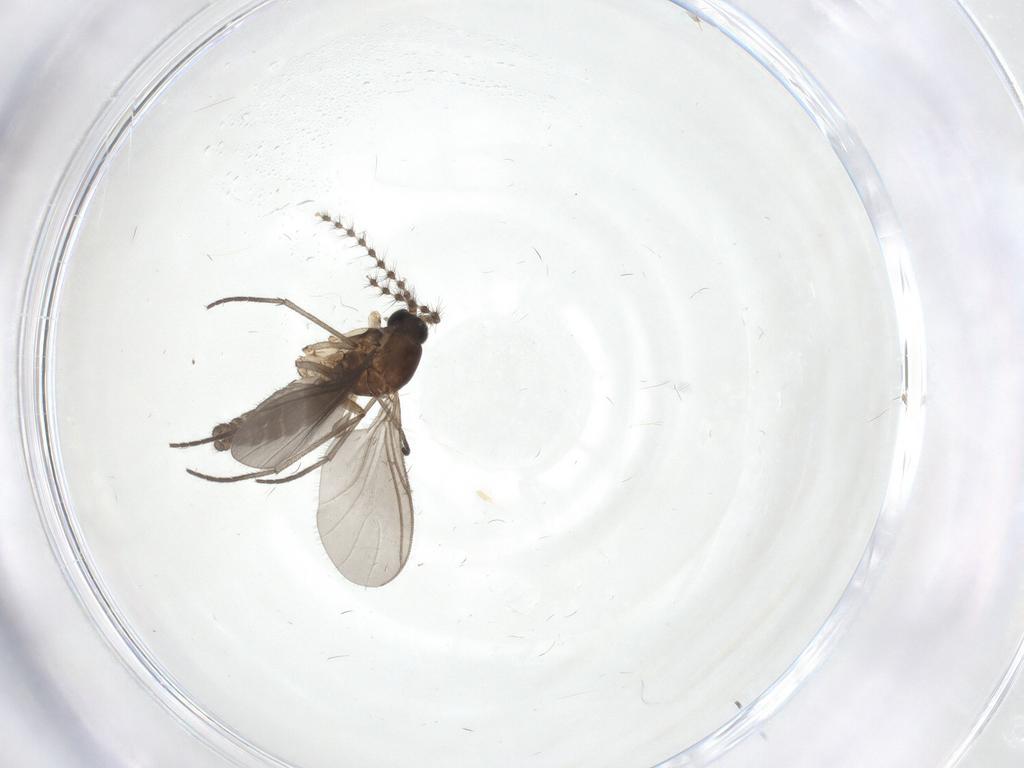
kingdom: Animalia
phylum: Arthropoda
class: Insecta
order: Diptera
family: Sciaridae
